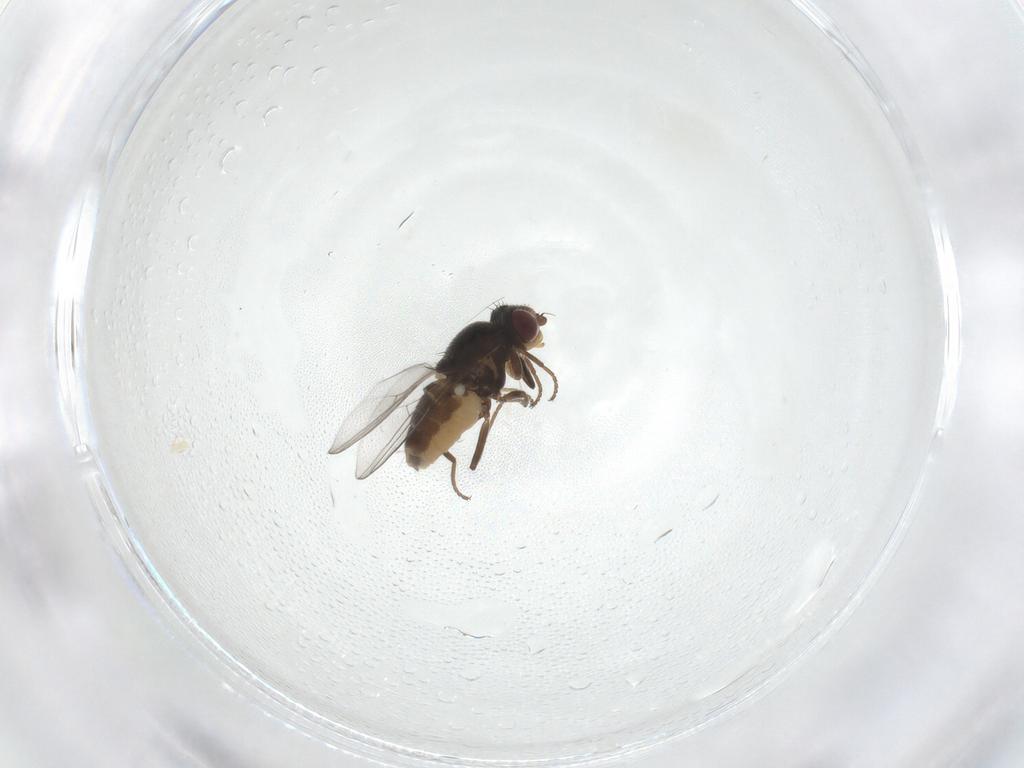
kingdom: Animalia
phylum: Arthropoda
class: Insecta
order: Diptera
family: Chloropidae
